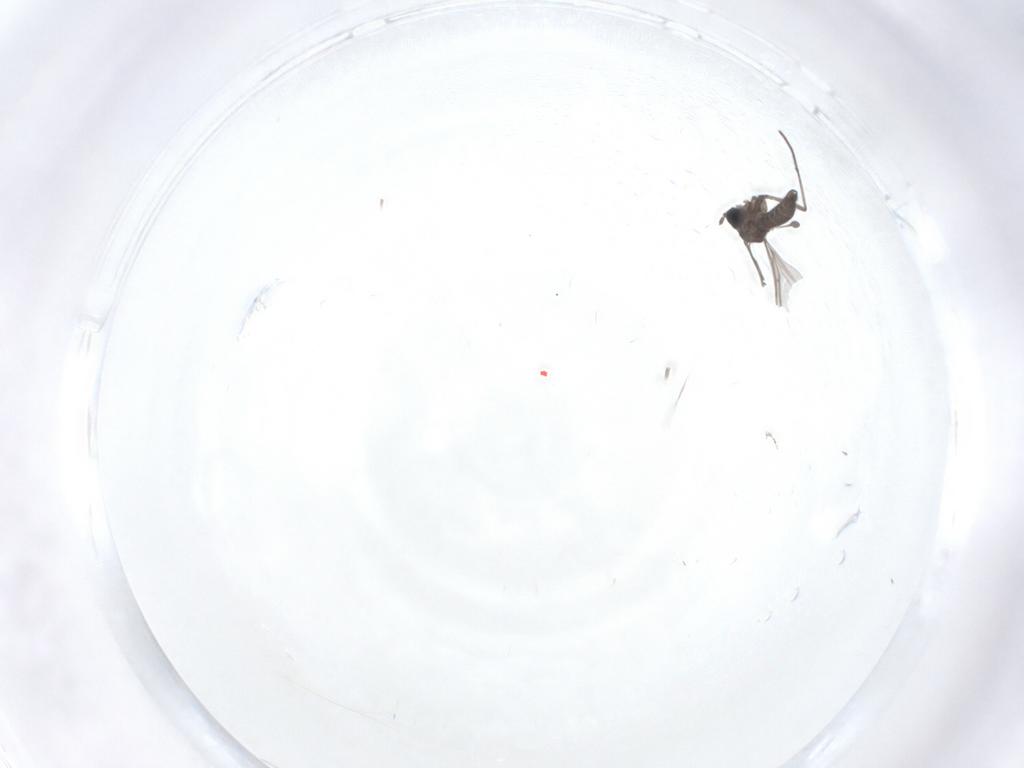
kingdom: Animalia
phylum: Arthropoda
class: Insecta
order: Diptera
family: Sciaridae
